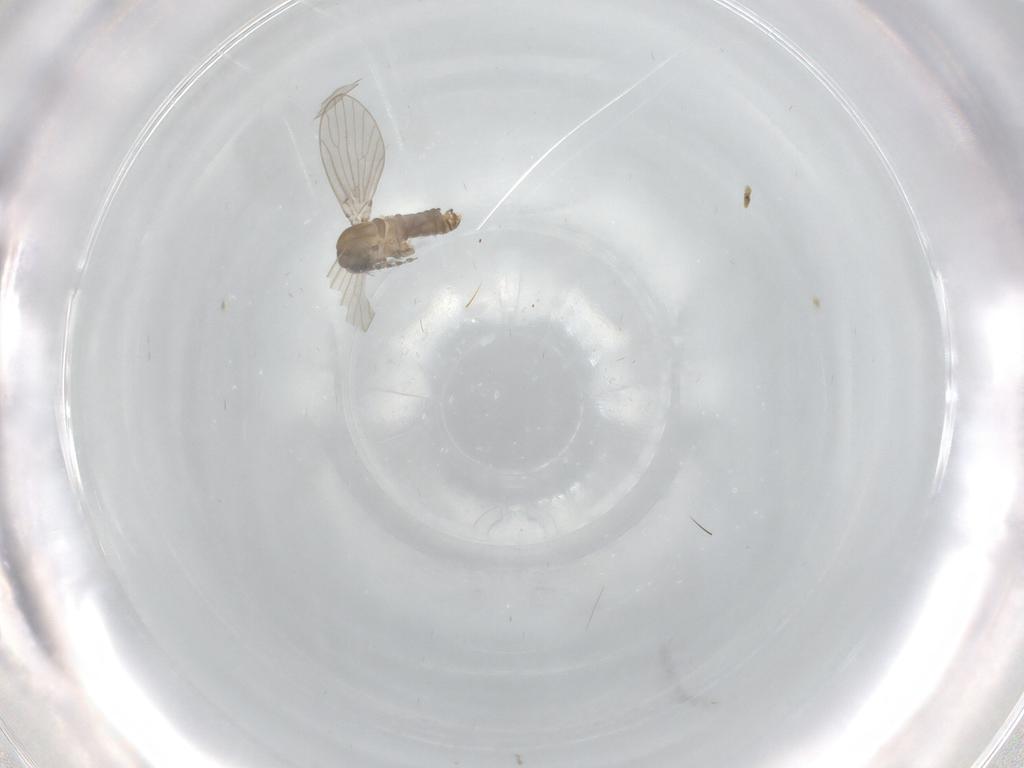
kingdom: Animalia
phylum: Arthropoda
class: Insecta
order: Diptera
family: Psychodidae
